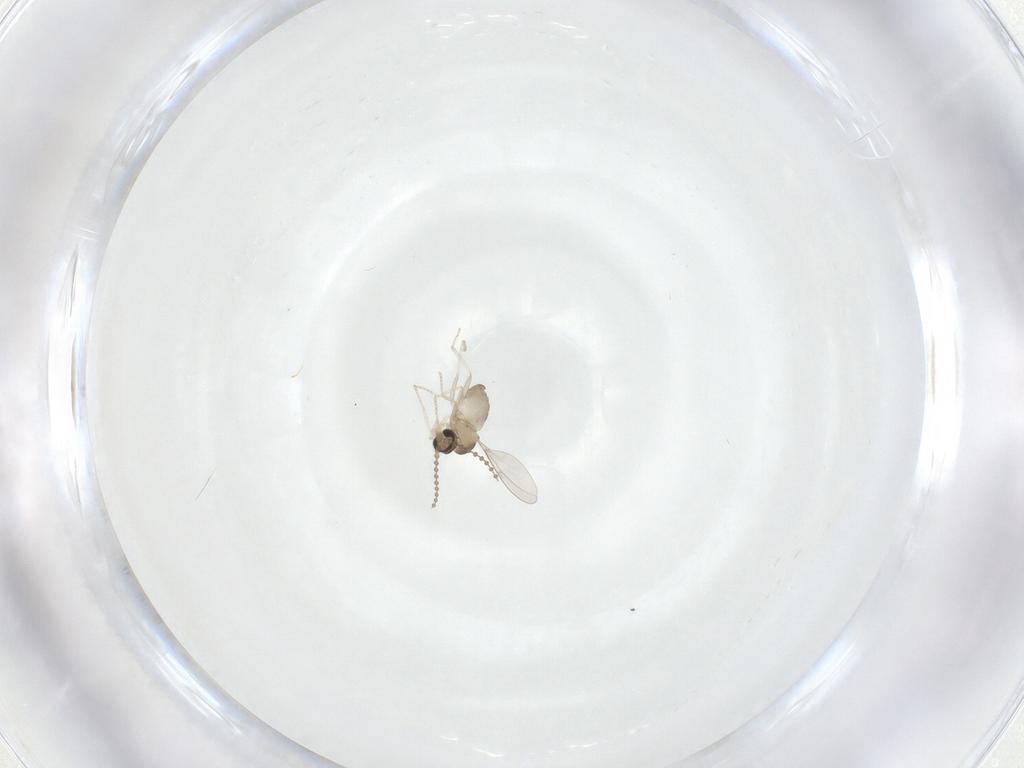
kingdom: Animalia
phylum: Arthropoda
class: Insecta
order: Diptera
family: Cecidomyiidae
